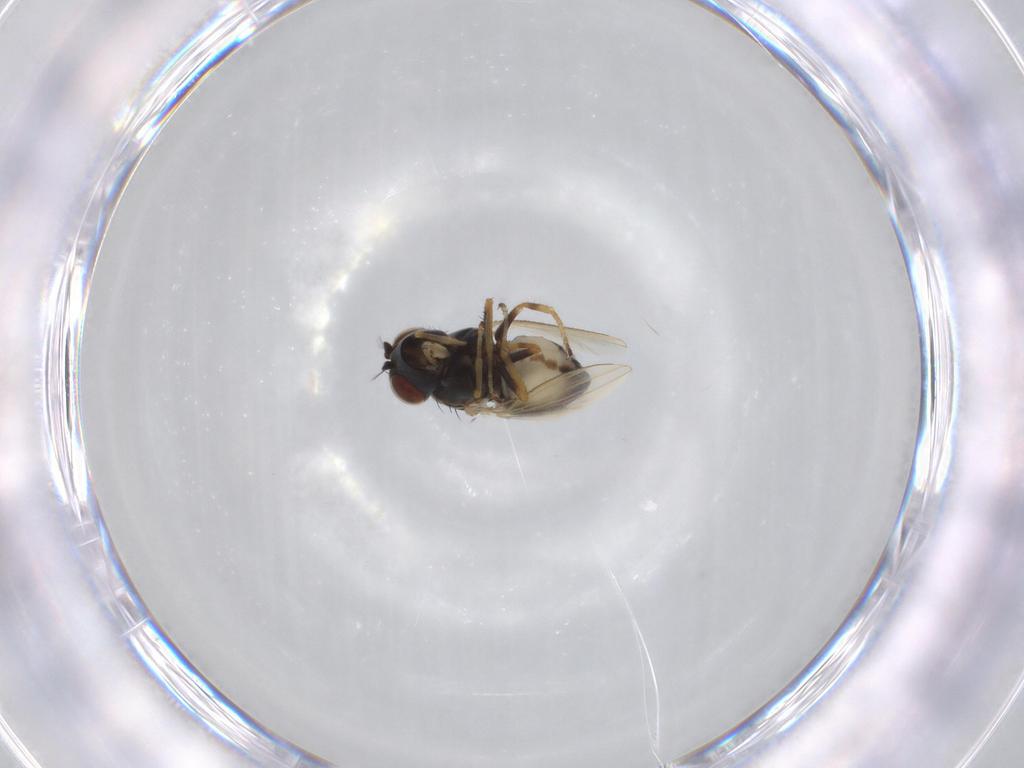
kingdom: Animalia
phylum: Arthropoda
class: Insecta
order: Diptera
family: Ephydridae
